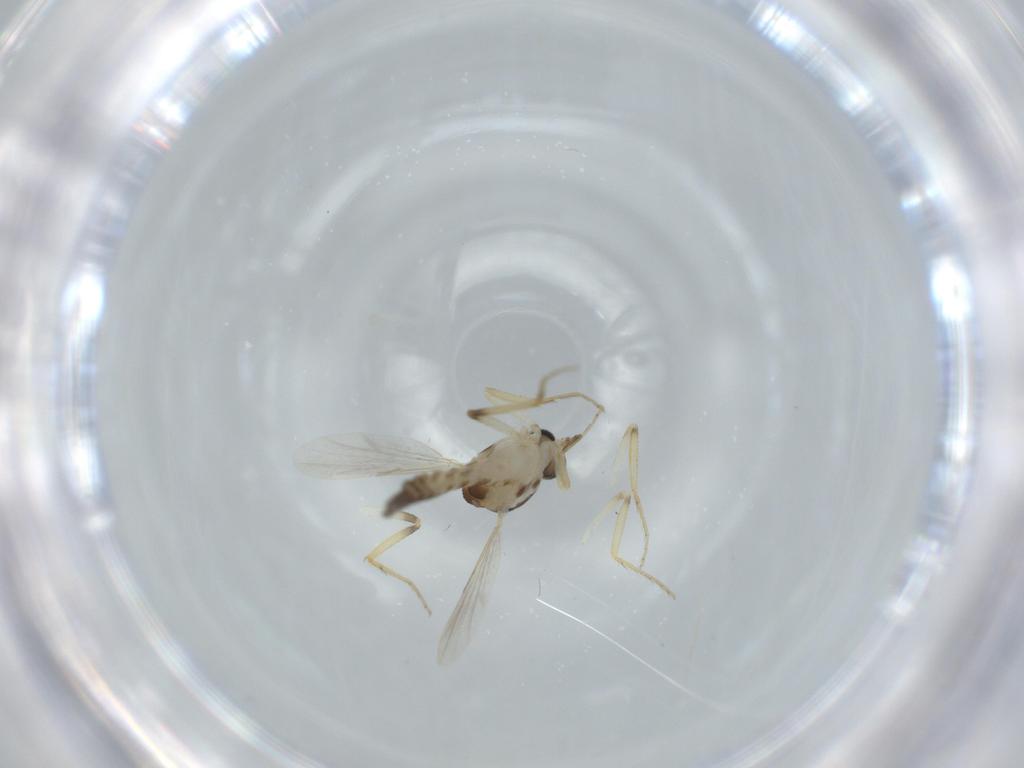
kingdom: Animalia
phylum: Arthropoda
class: Insecta
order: Diptera
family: Ceratopogonidae
